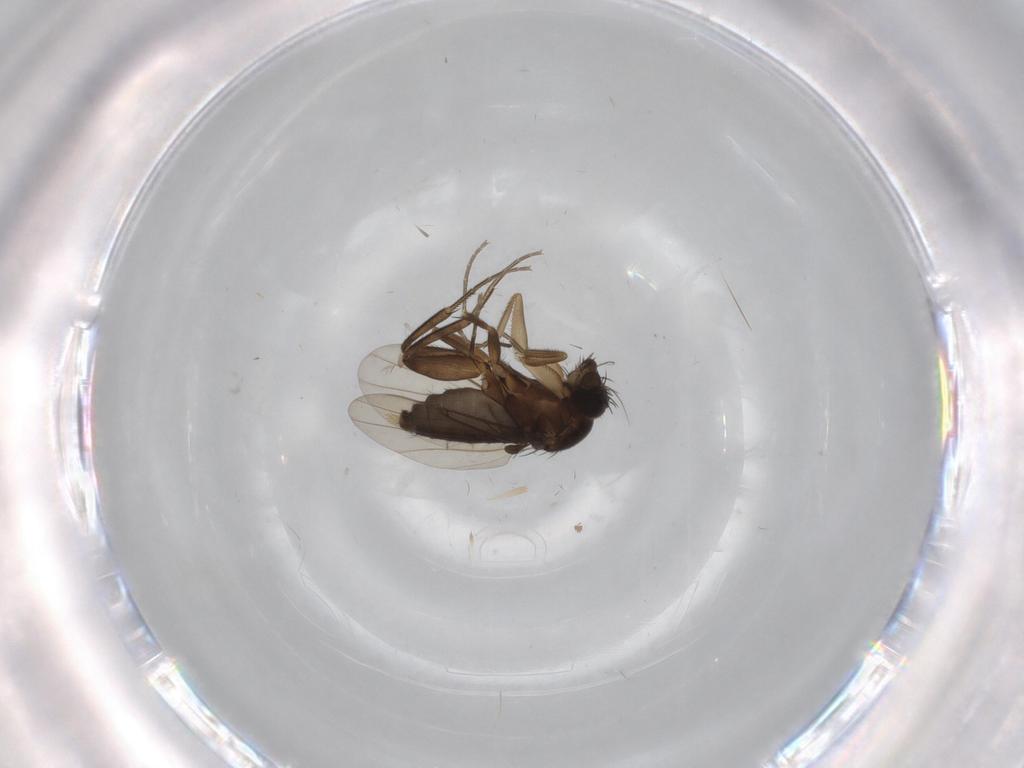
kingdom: Animalia
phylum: Arthropoda
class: Insecta
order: Diptera
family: Phoridae
